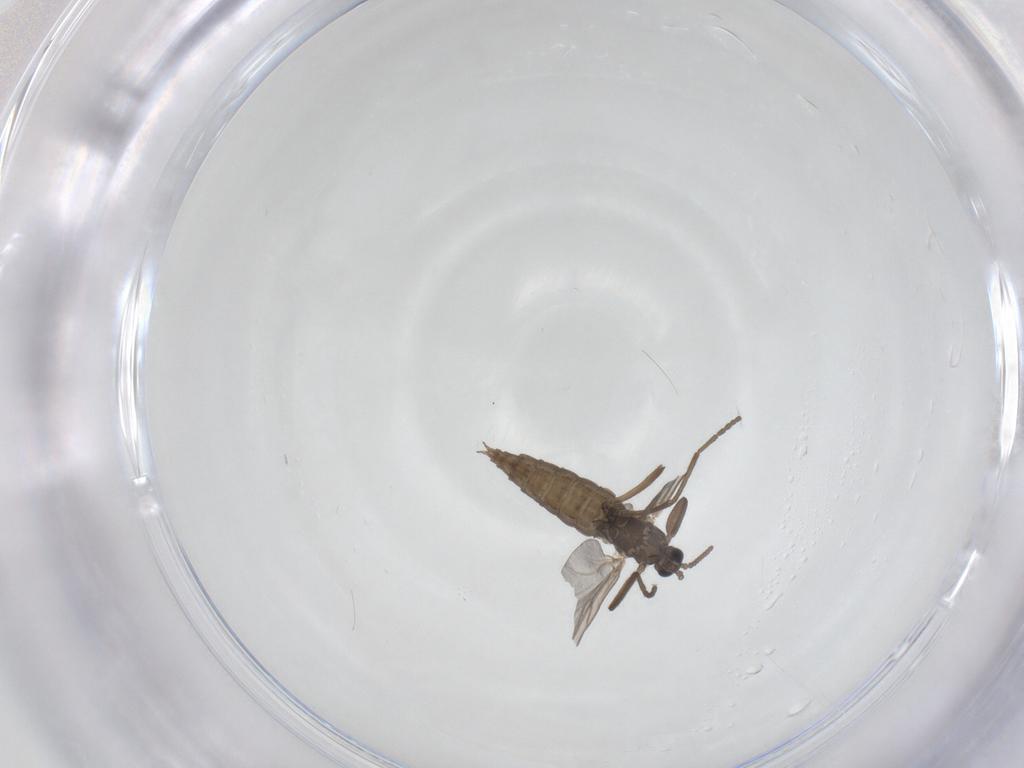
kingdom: Animalia
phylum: Arthropoda
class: Insecta
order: Diptera
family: Cecidomyiidae
